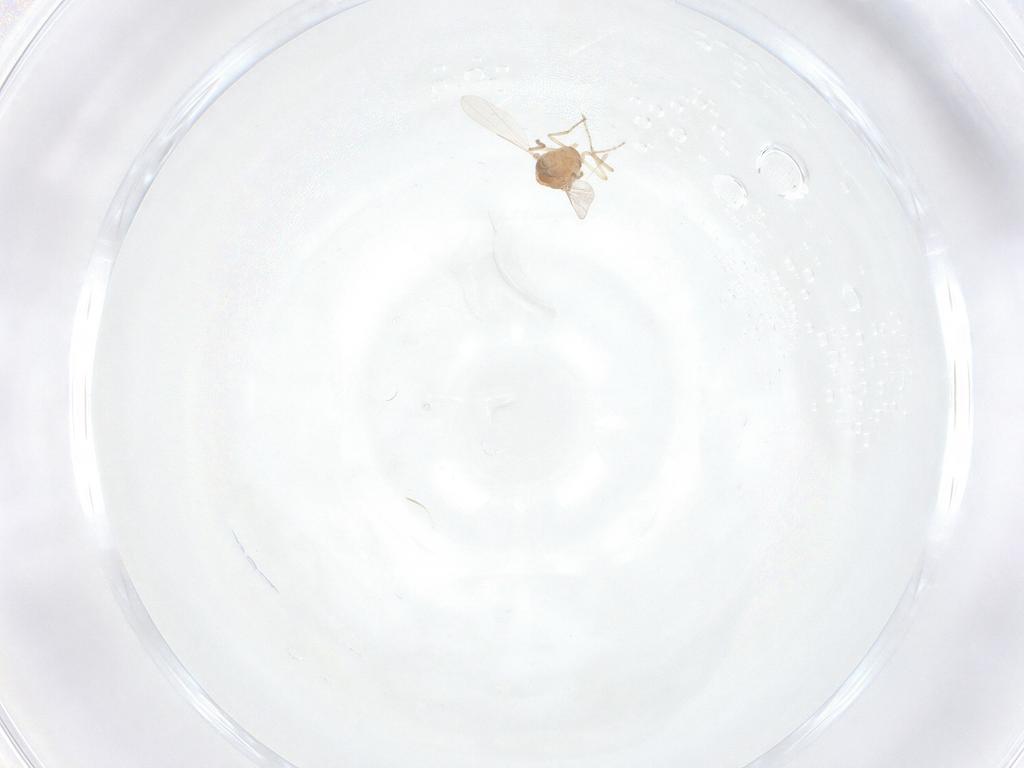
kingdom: Animalia
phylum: Arthropoda
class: Insecta
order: Diptera
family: Ceratopogonidae
